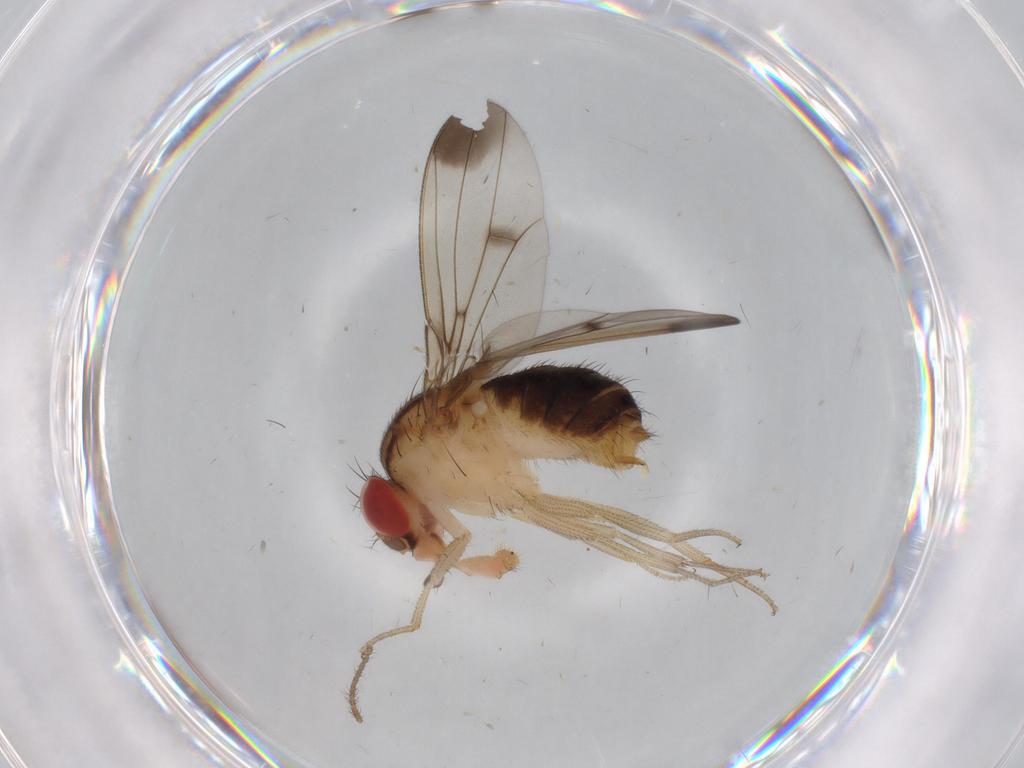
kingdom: Animalia
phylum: Arthropoda
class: Insecta
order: Diptera
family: Drosophilidae
